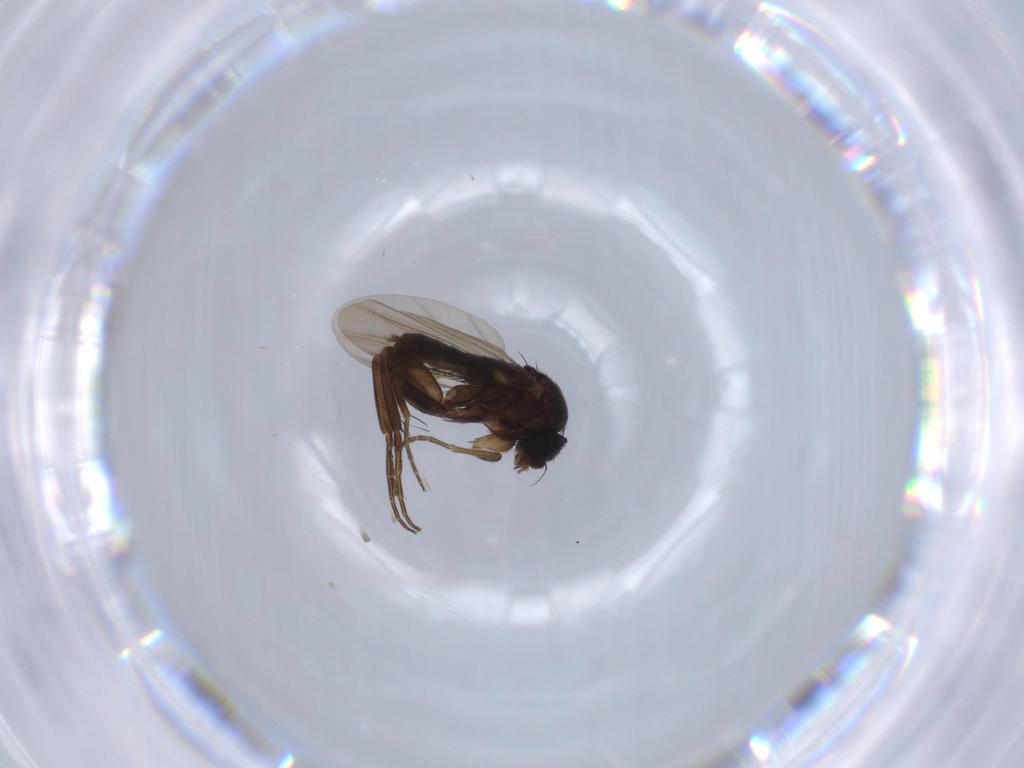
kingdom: Animalia
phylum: Arthropoda
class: Insecta
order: Diptera
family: Phoridae
